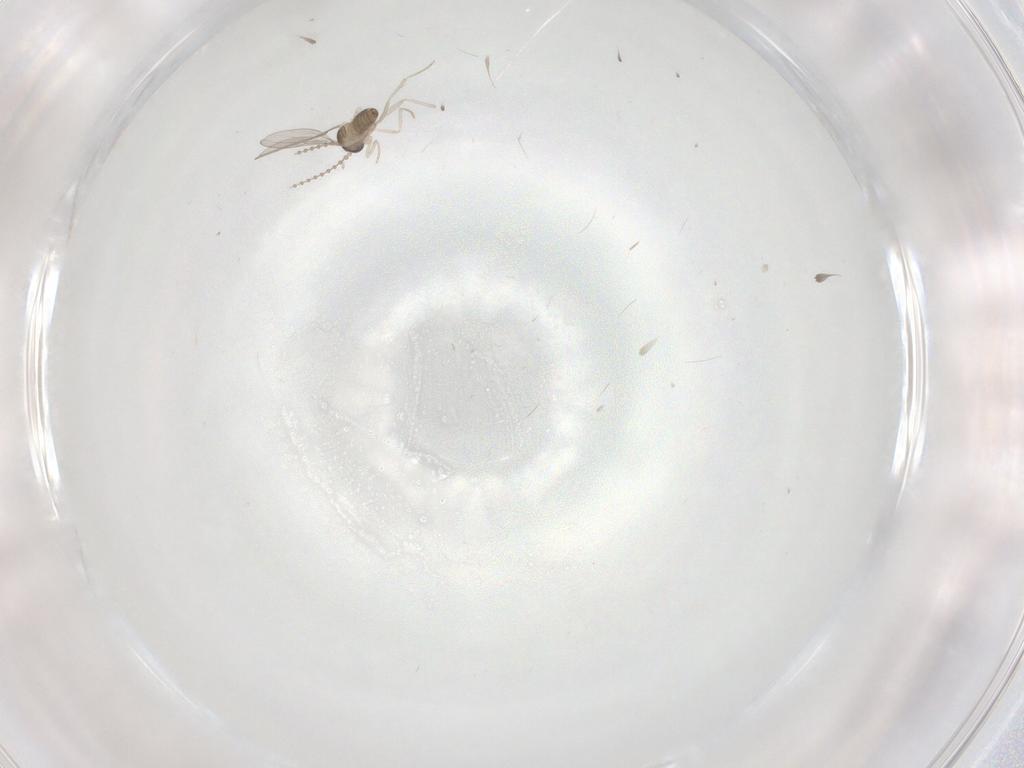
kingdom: Animalia
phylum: Arthropoda
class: Insecta
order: Diptera
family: Cecidomyiidae
